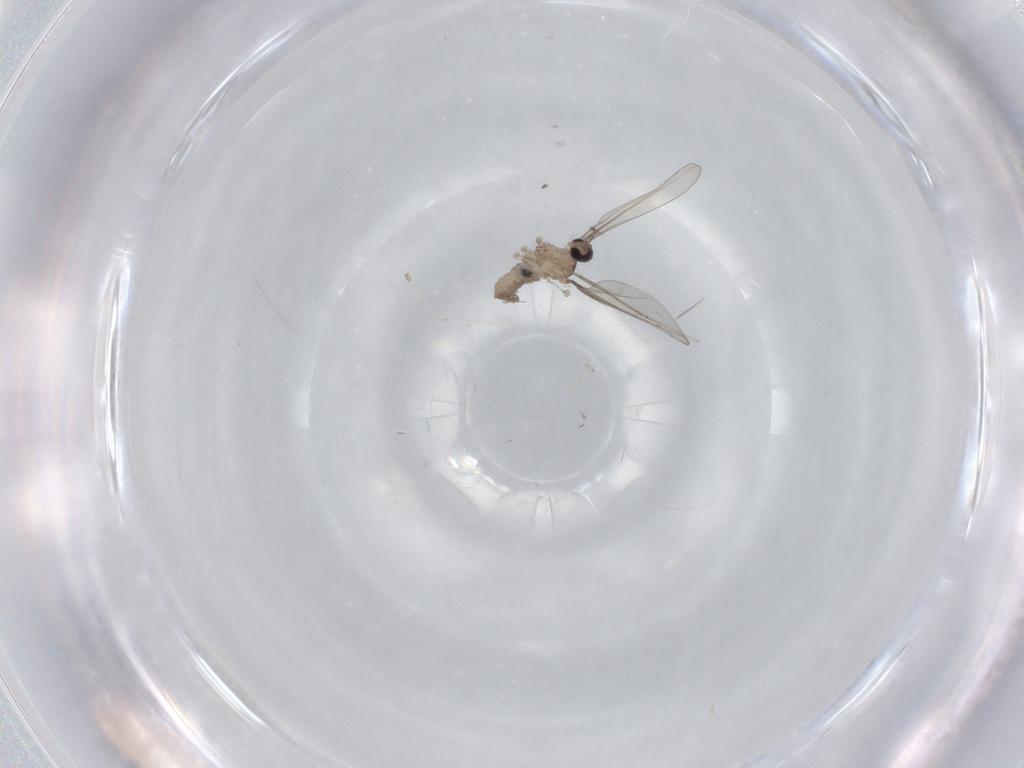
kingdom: Animalia
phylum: Arthropoda
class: Insecta
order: Diptera
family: Cecidomyiidae
